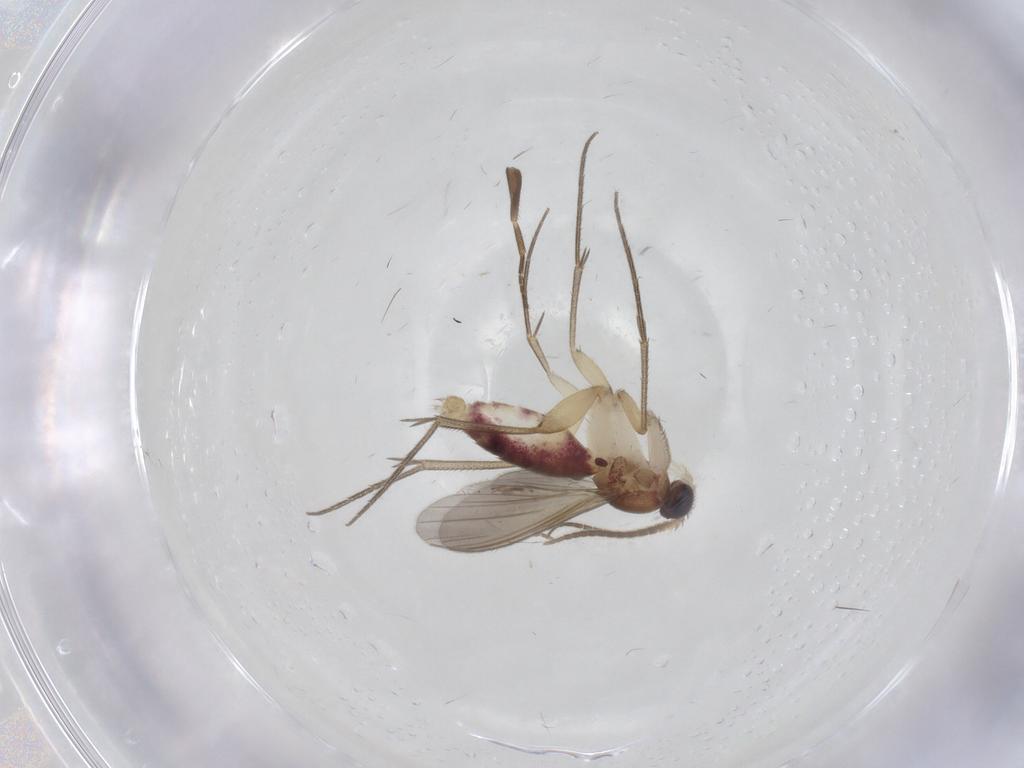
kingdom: Animalia
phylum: Arthropoda
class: Insecta
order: Diptera
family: Mycetophilidae
